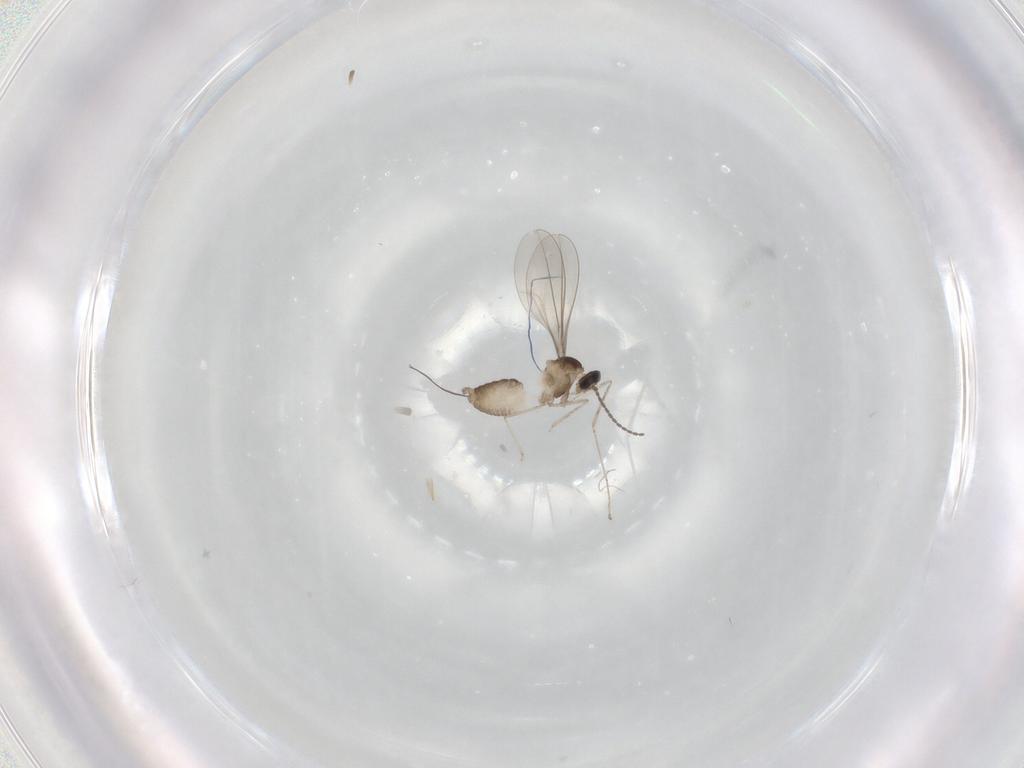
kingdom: Animalia
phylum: Arthropoda
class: Insecta
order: Diptera
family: Cecidomyiidae
